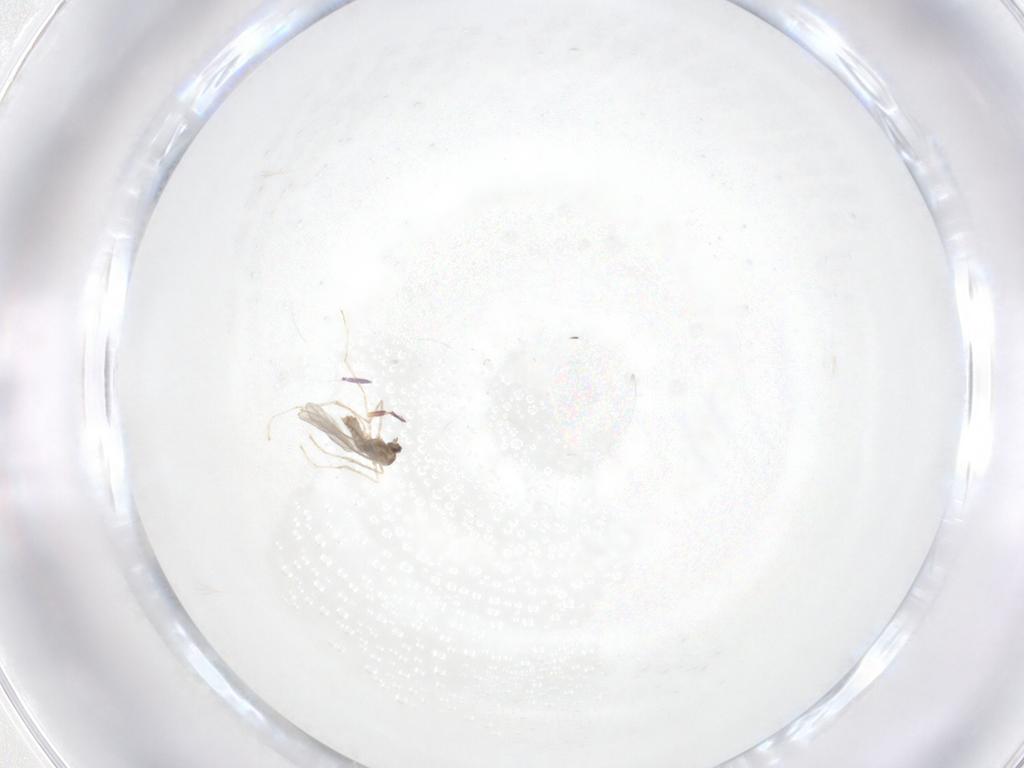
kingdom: Animalia
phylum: Arthropoda
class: Insecta
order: Diptera
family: Cecidomyiidae
